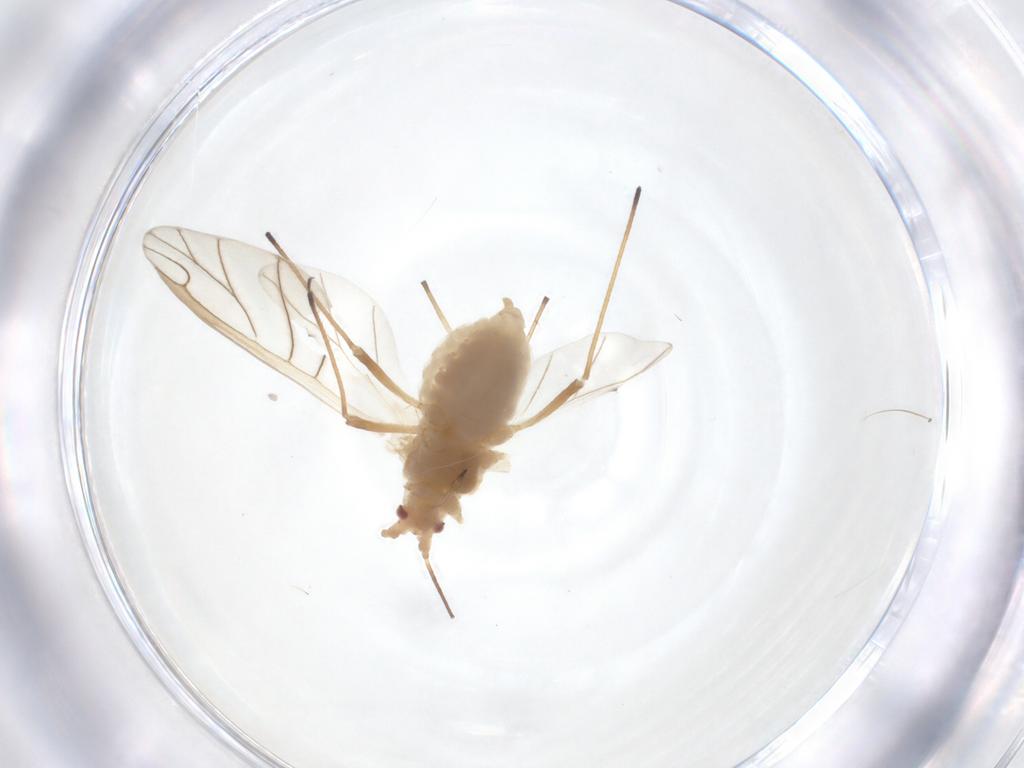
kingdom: Animalia
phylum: Arthropoda
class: Insecta
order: Hemiptera
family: Aphididae
